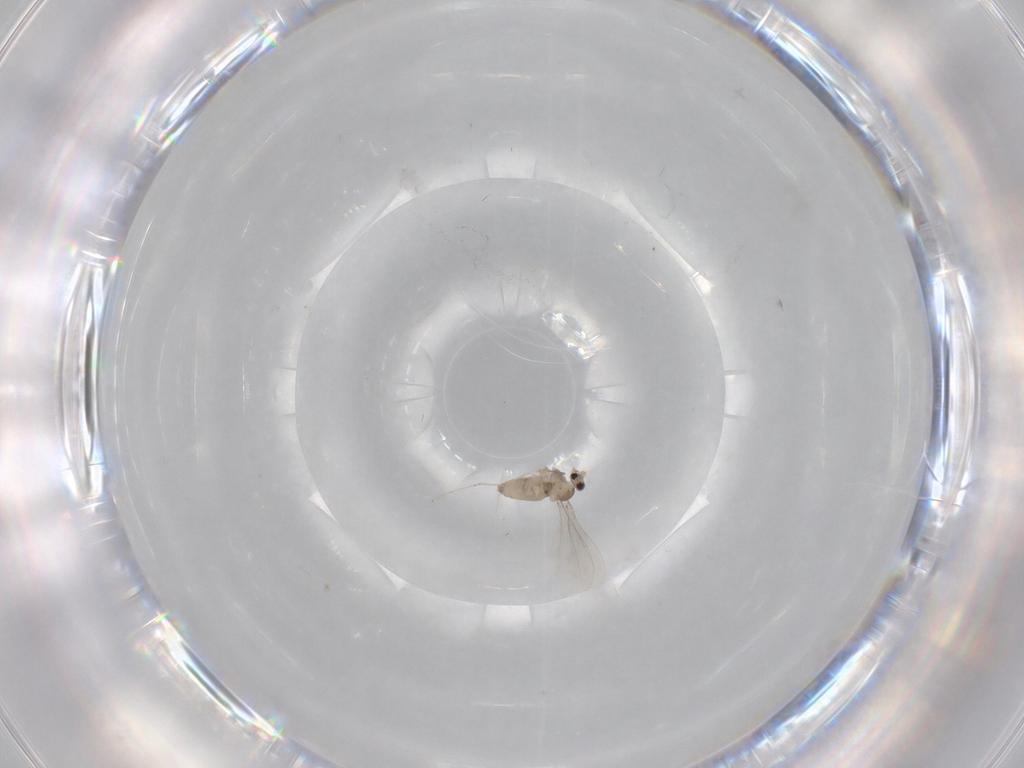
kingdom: Animalia
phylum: Arthropoda
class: Insecta
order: Diptera
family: Cecidomyiidae
